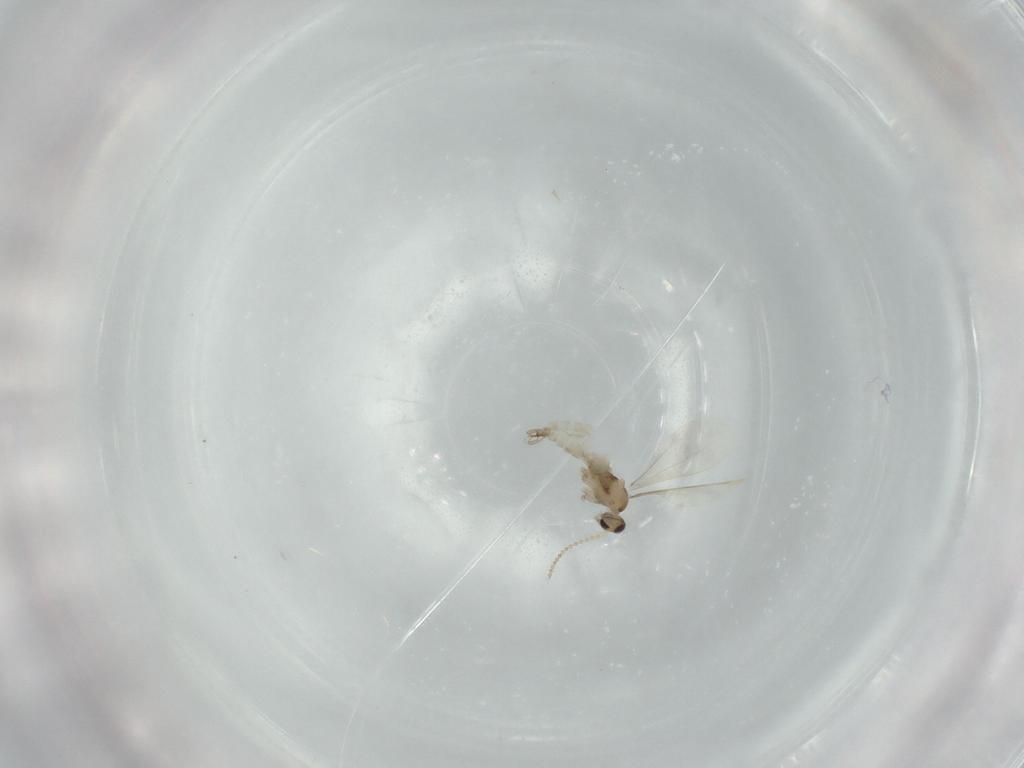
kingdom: Animalia
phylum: Arthropoda
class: Insecta
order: Diptera
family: Cecidomyiidae
